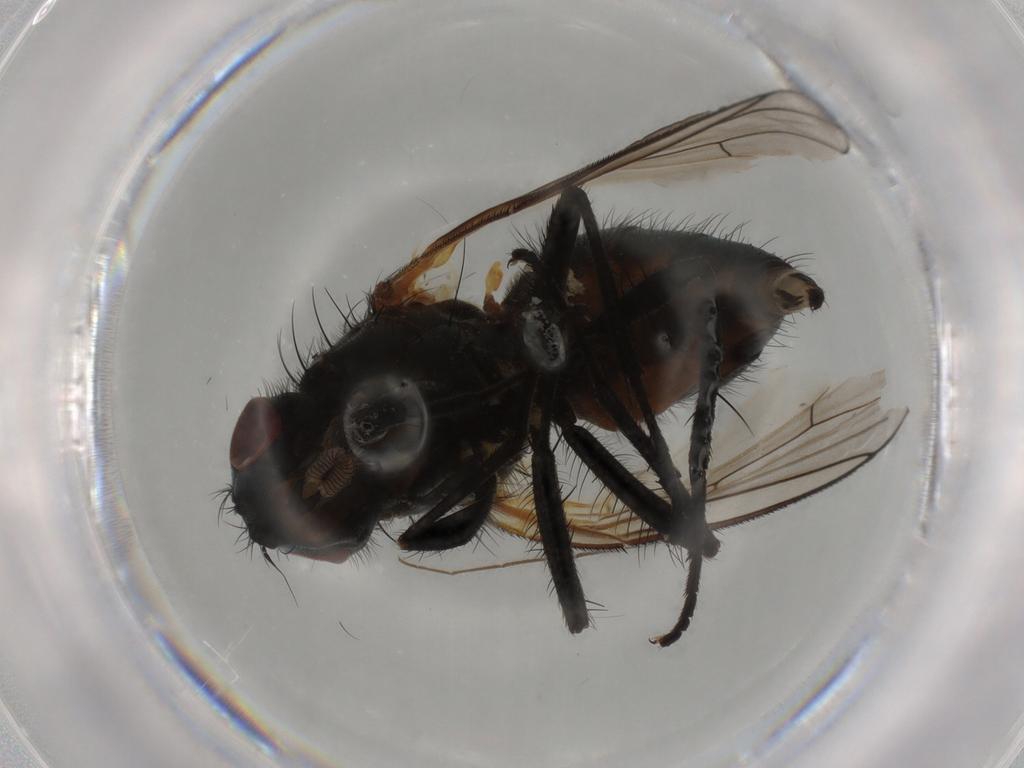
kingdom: Animalia
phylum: Arthropoda
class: Insecta
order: Diptera
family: Anthomyiidae
